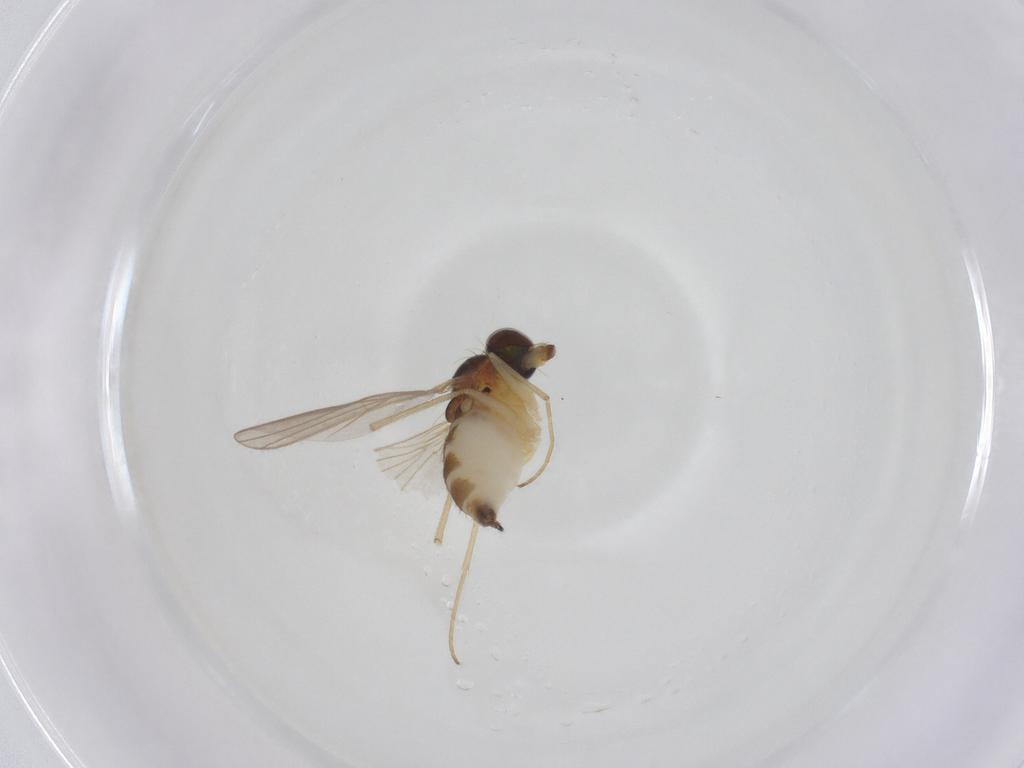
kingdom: Animalia
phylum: Arthropoda
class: Insecta
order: Diptera
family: Dolichopodidae
